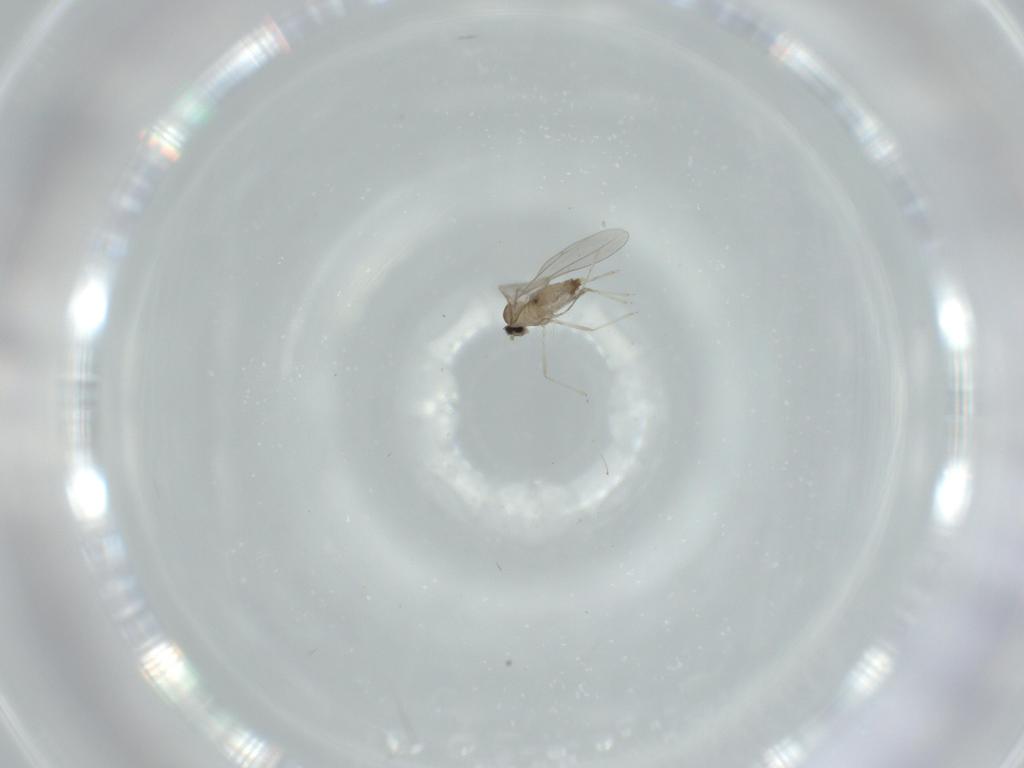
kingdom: Animalia
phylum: Arthropoda
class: Insecta
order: Diptera
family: Cecidomyiidae
